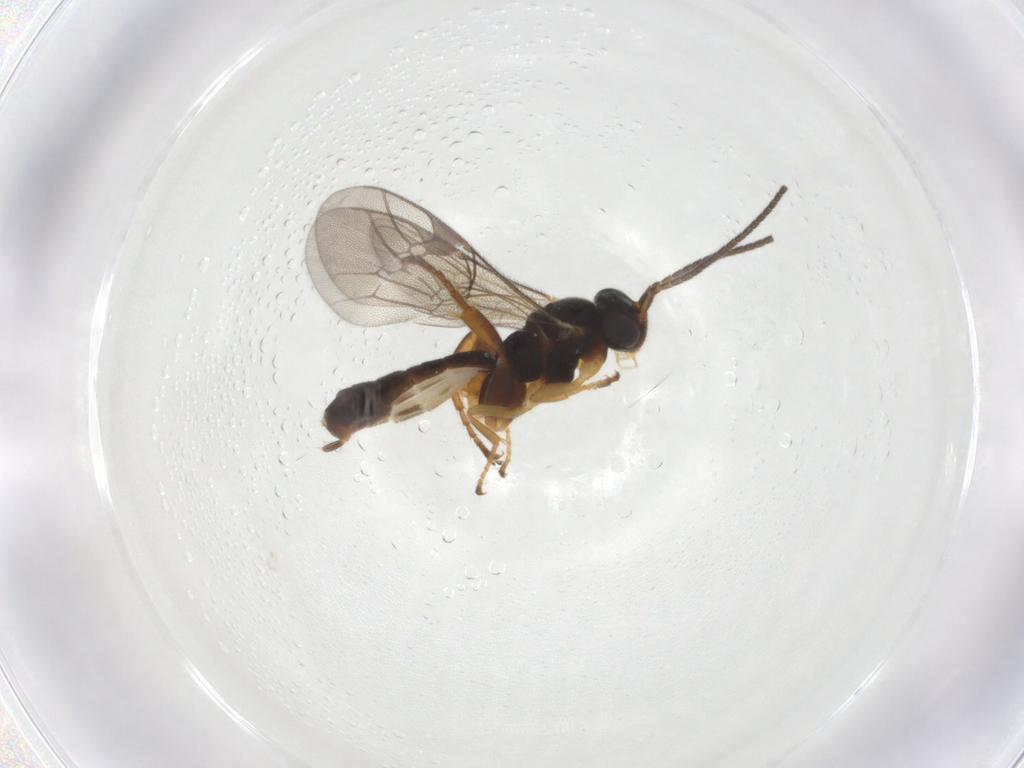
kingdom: Animalia
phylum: Arthropoda
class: Insecta
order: Hymenoptera
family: Ichneumonidae
